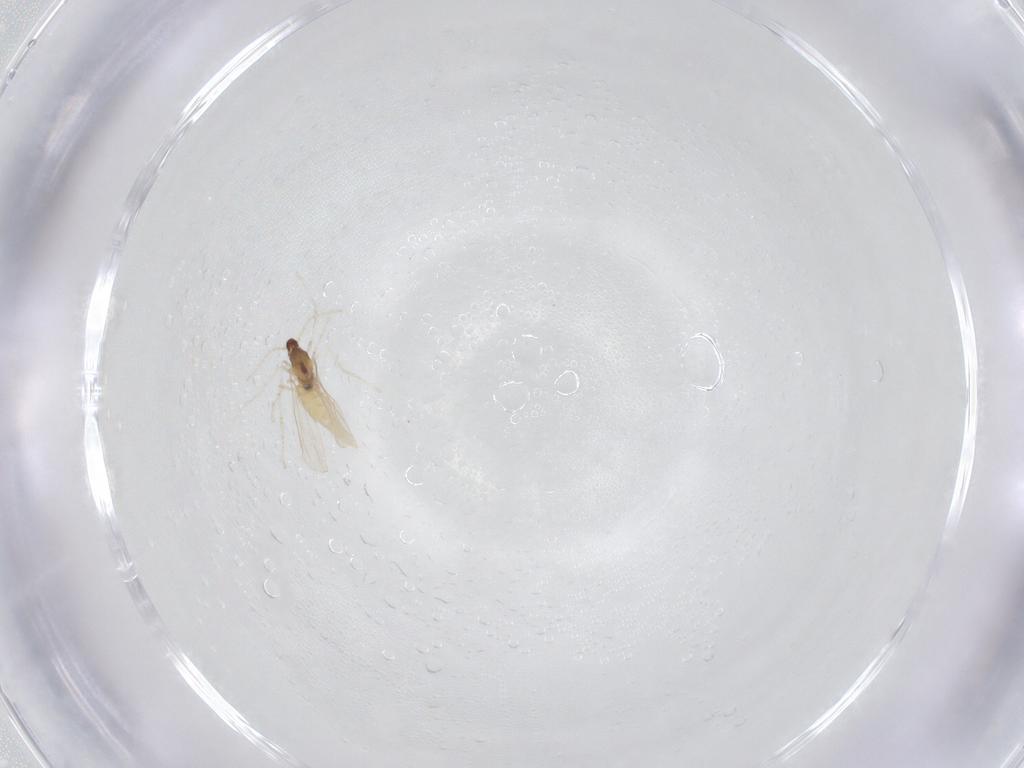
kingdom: Animalia
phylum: Arthropoda
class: Insecta
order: Diptera
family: Cecidomyiidae
